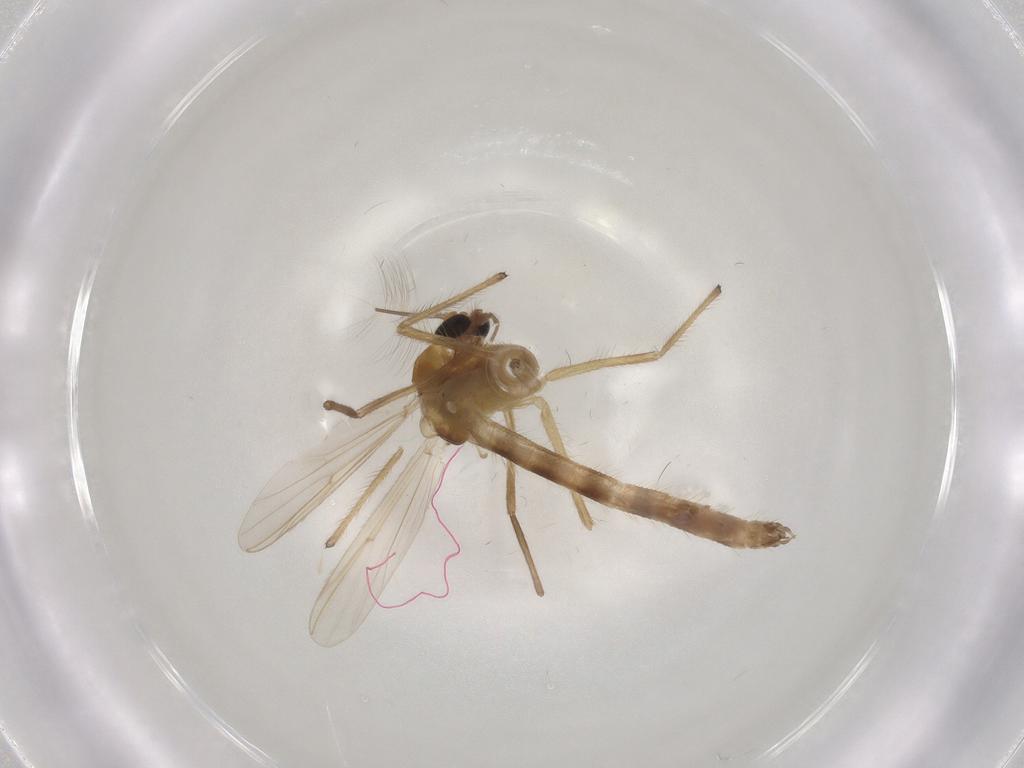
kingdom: Animalia
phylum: Arthropoda
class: Insecta
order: Diptera
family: Chironomidae
